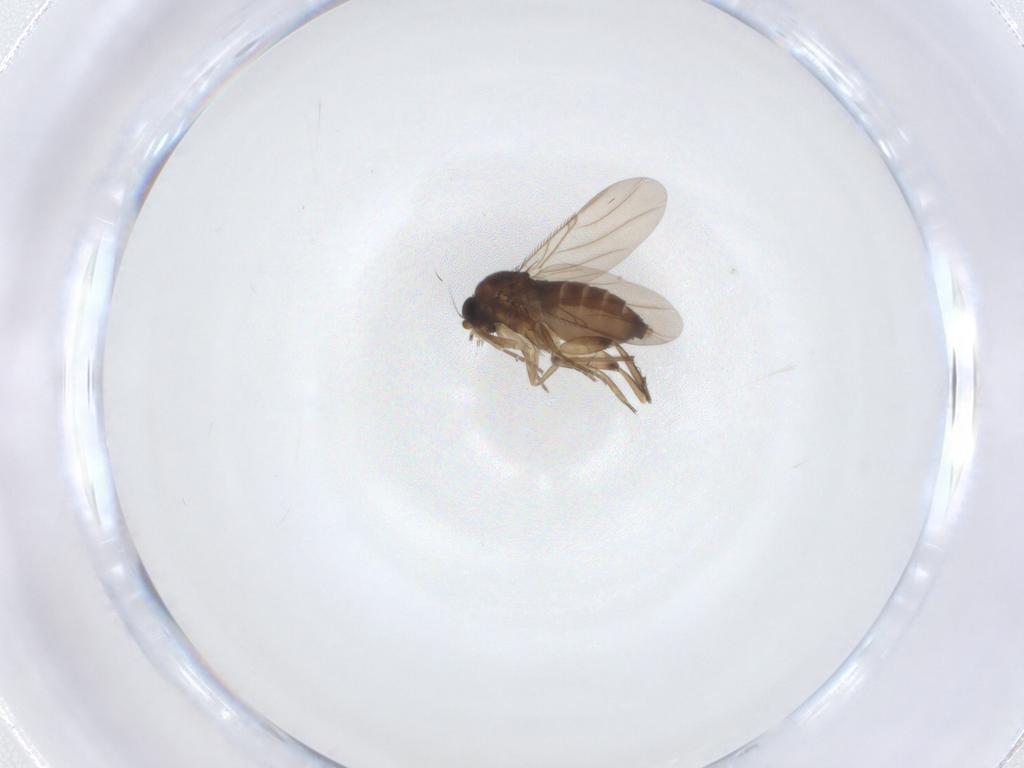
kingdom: Animalia
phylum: Arthropoda
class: Insecta
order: Diptera
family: Phoridae
